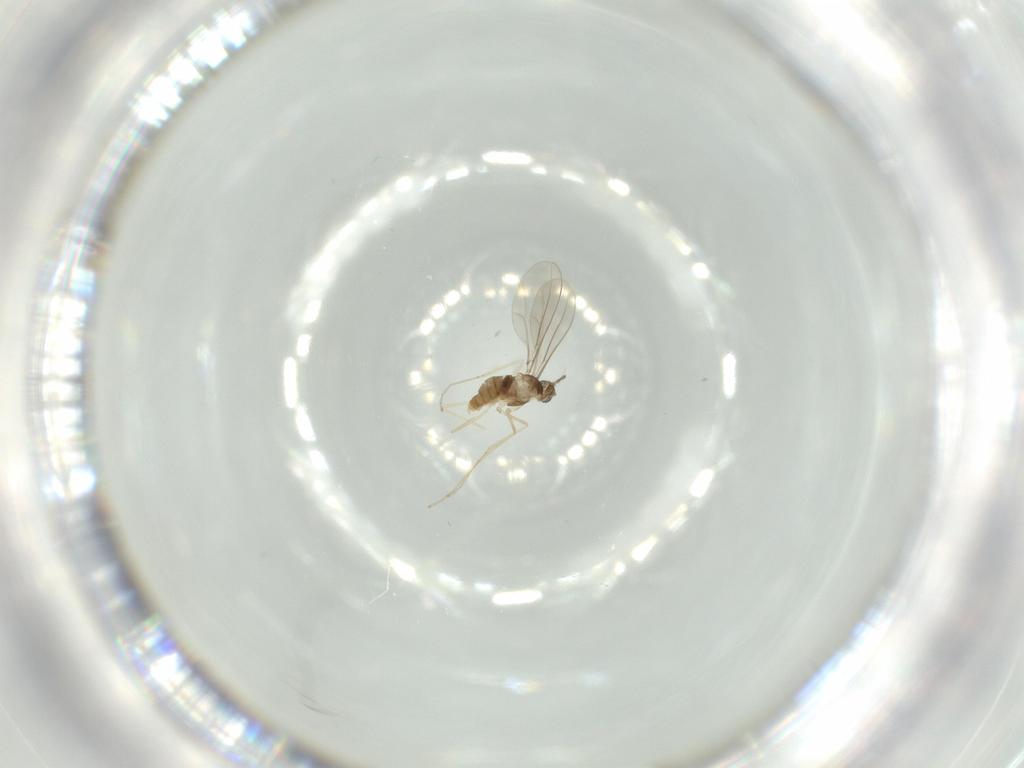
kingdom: Animalia
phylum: Arthropoda
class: Insecta
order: Diptera
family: Cecidomyiidae
